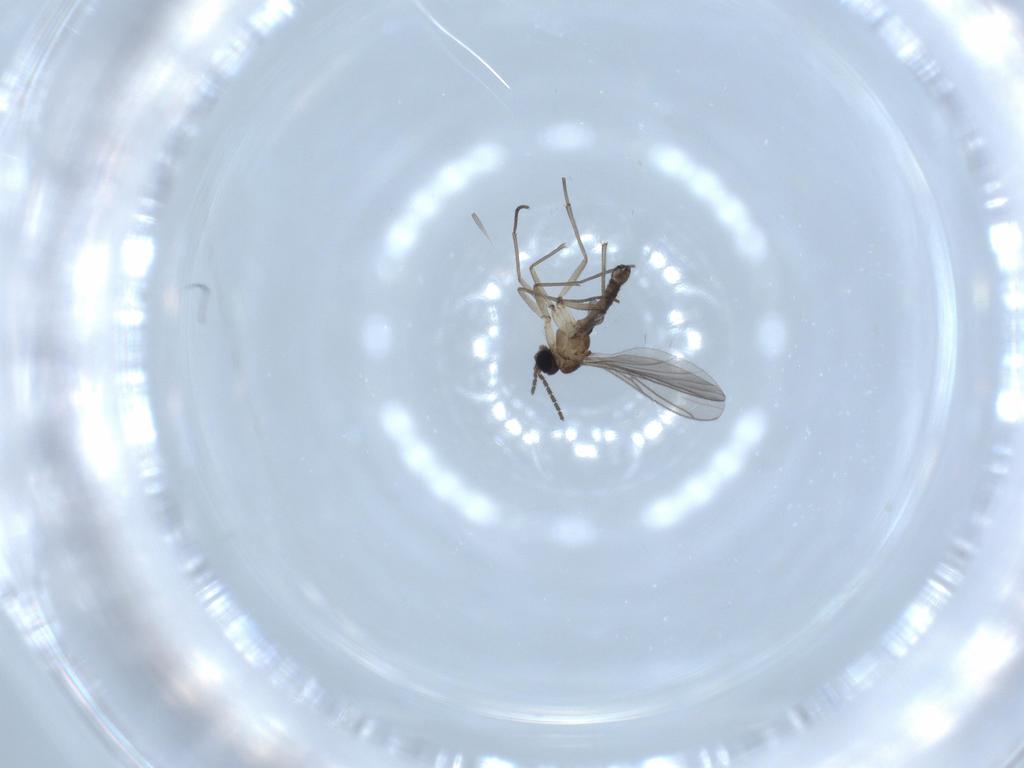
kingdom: Animalia
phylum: Arthropoda
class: Insecta
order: Diptera
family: Sciaridae
